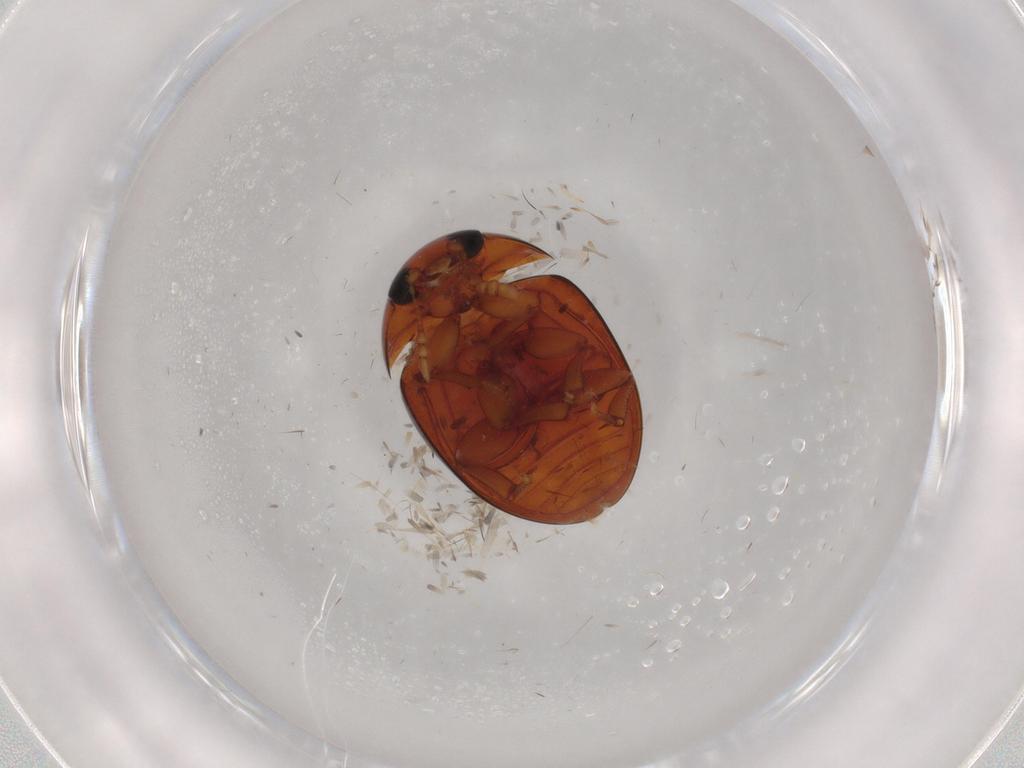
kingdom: Animalia
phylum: Arthropoda
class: Insecta
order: Coleoptera
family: Phalacridae
